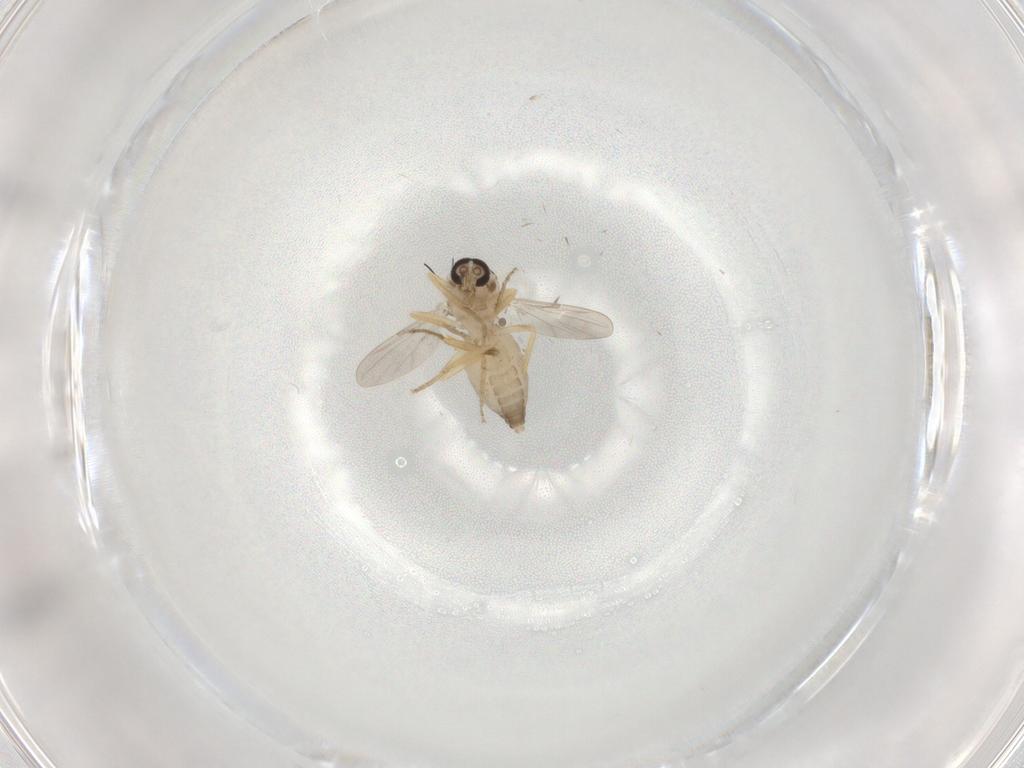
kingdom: Animalia
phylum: Arthropoda
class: Insecta
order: Diptera
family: Ceratopogonidae
